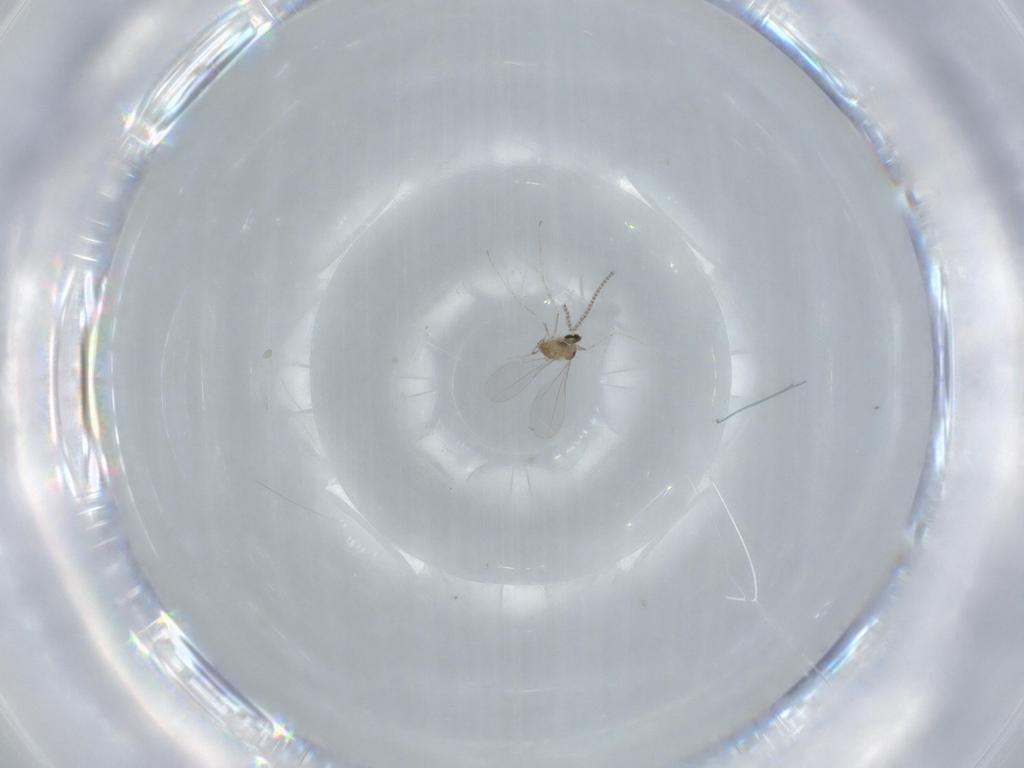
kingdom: Animalia
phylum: Arthropoda
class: Insecta
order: Diptera
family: Cecidomyiidae
